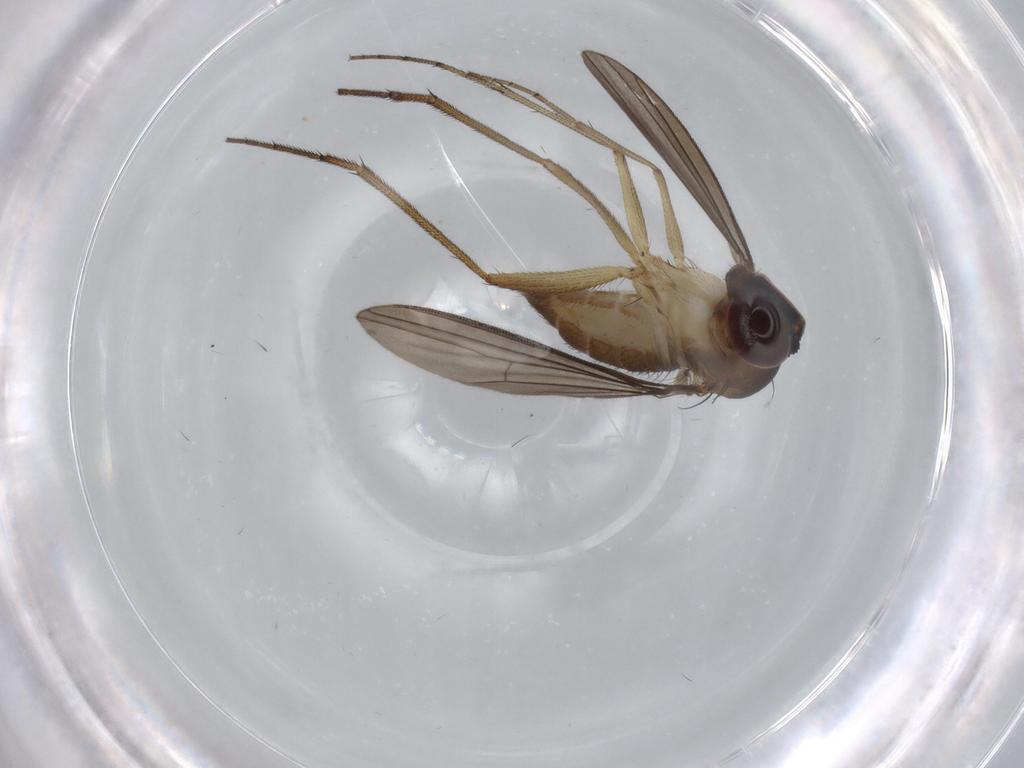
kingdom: Animalia
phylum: Arthropoda
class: Insecta
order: Diptera
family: Dolichopodidae
